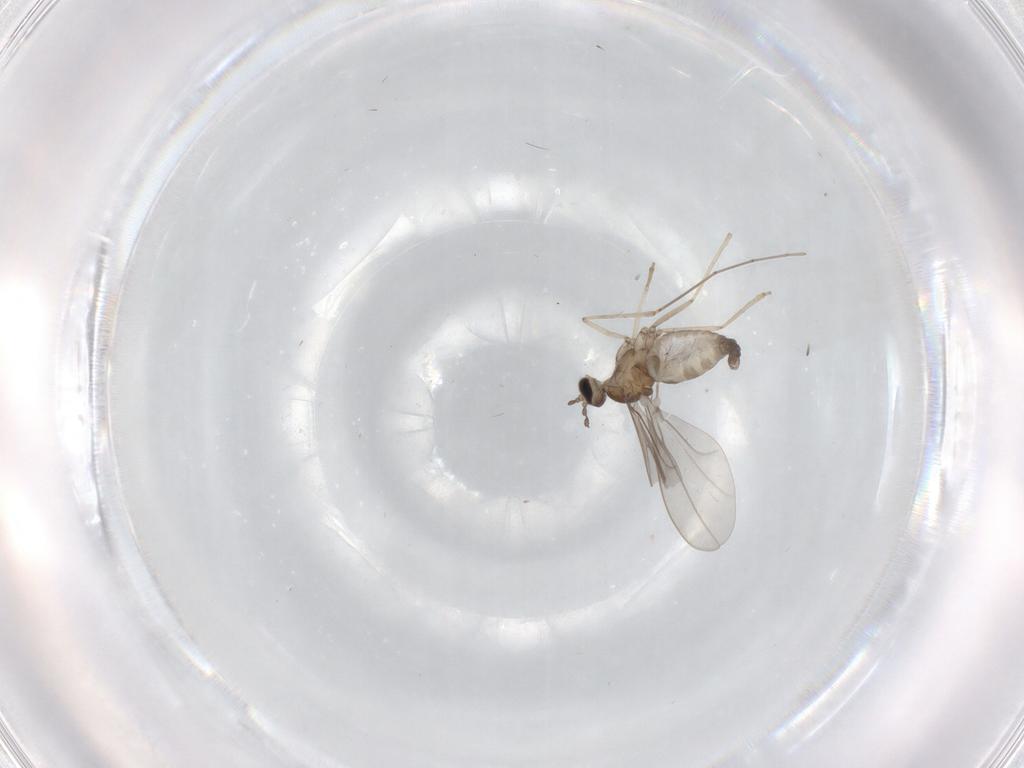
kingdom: Animalia
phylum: Arthropoda
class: Insecta
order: Diptera
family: Cecidomyiidae
